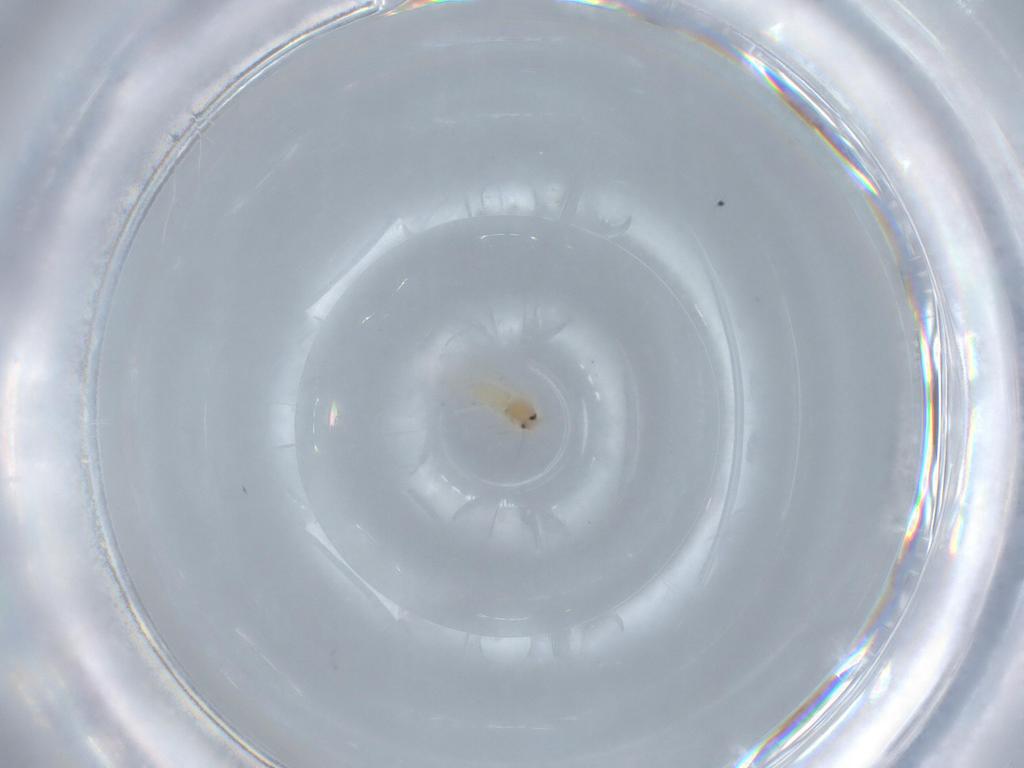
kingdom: Animalia
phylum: Arthropoda
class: Insecta
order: Hemiptera
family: Aleyrodidae
